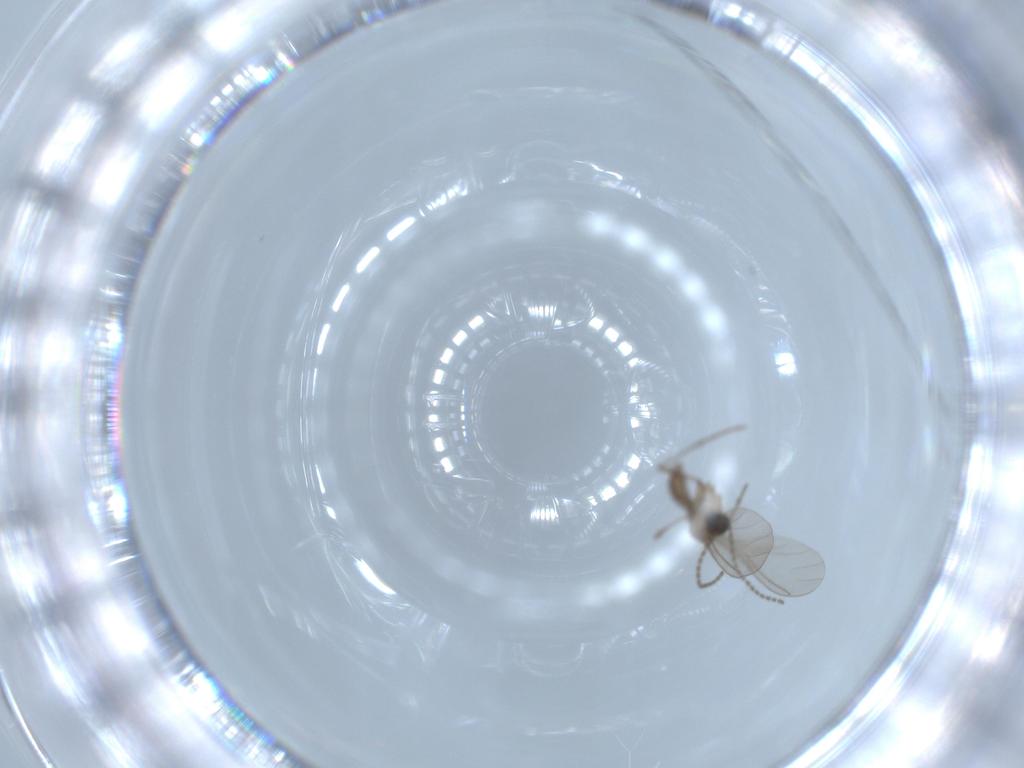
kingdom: Animalia
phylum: Arthropoda
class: Insecta
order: Diptera
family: Sciaridae
